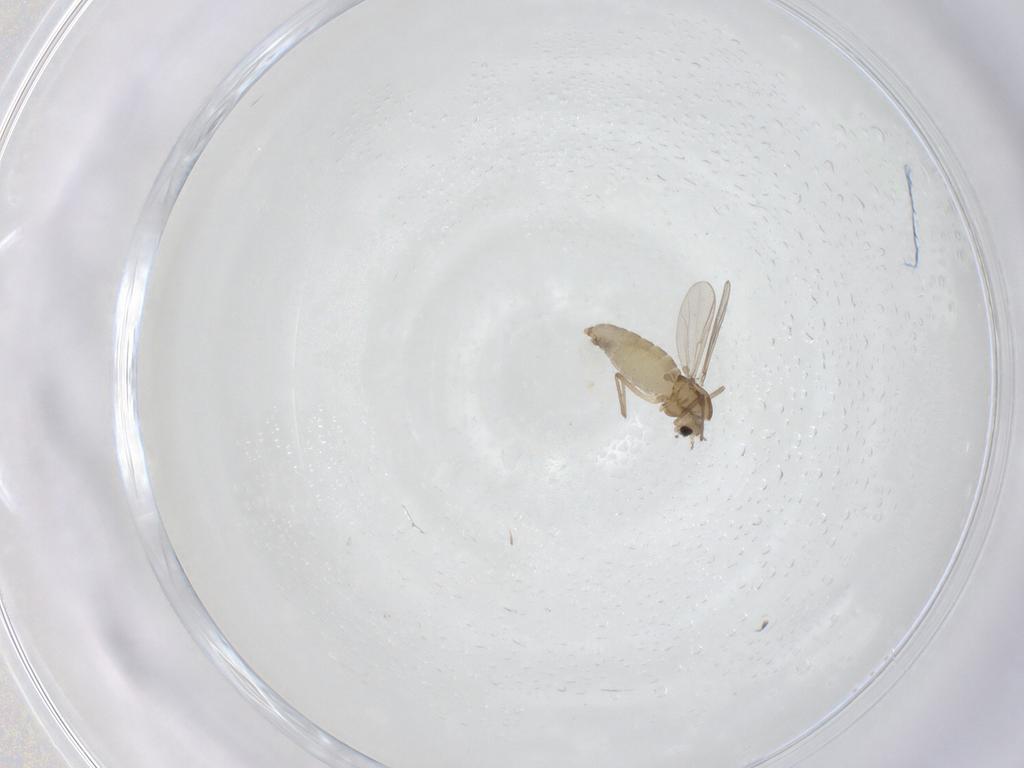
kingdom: Animalia
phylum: Arthropoda
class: Insecta
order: Diptera
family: Chironomidae
